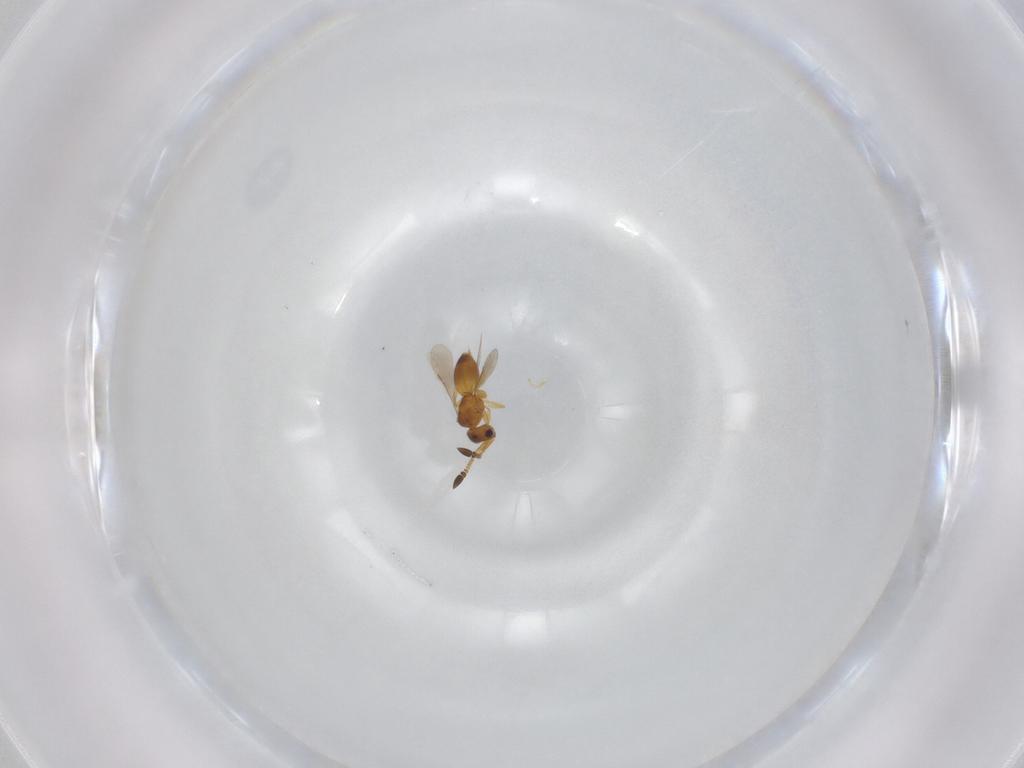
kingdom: Animalia
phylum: Arthropoda
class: Insecta
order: Hymenoptera
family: Ceraphronidae
